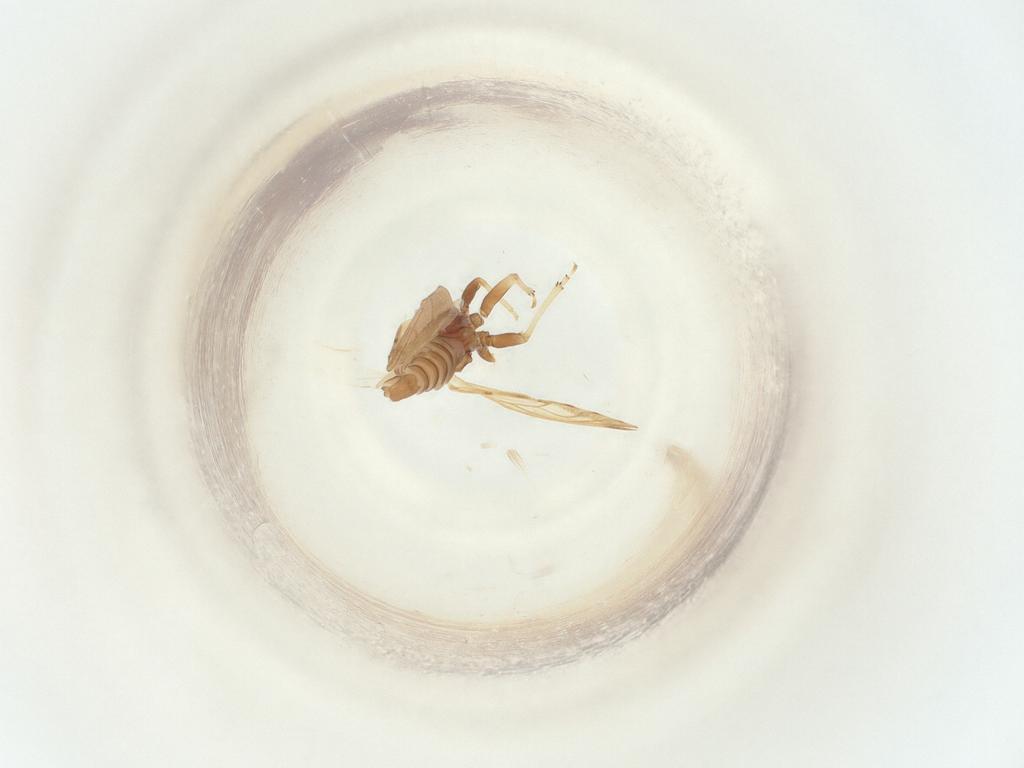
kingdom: Animalia
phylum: Arthropoda
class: Insecta
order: Hemiptera
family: Psyllidae
